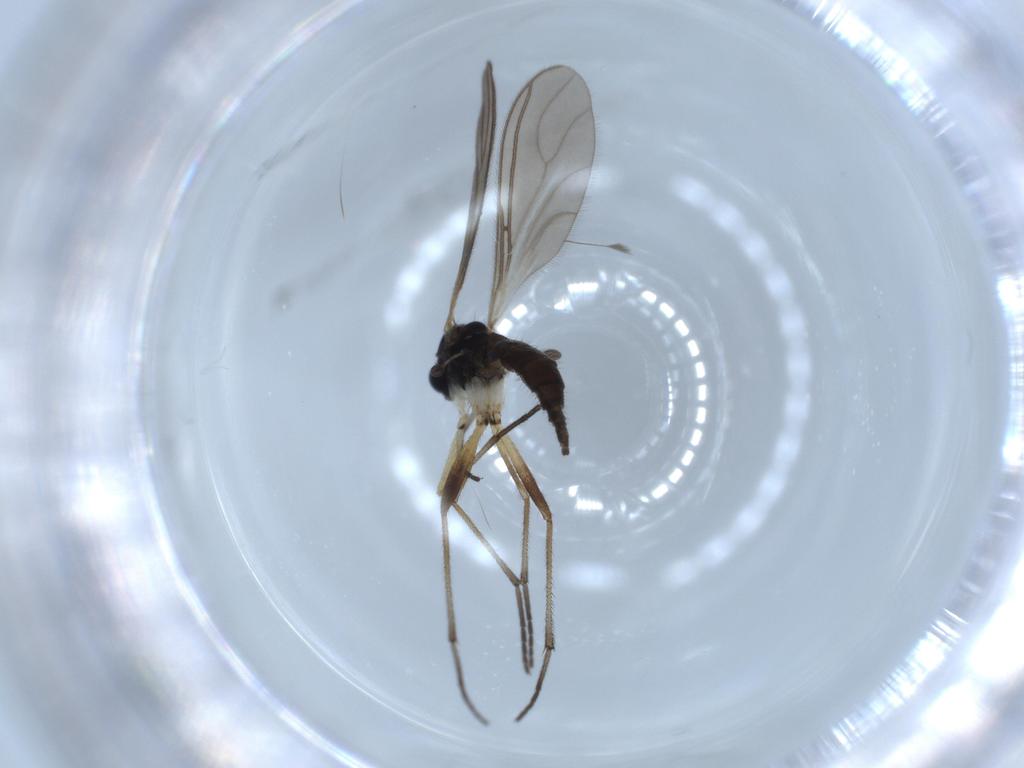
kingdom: Animalia
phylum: Arthropoda
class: Insecta
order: Diptera
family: Sciaridae
